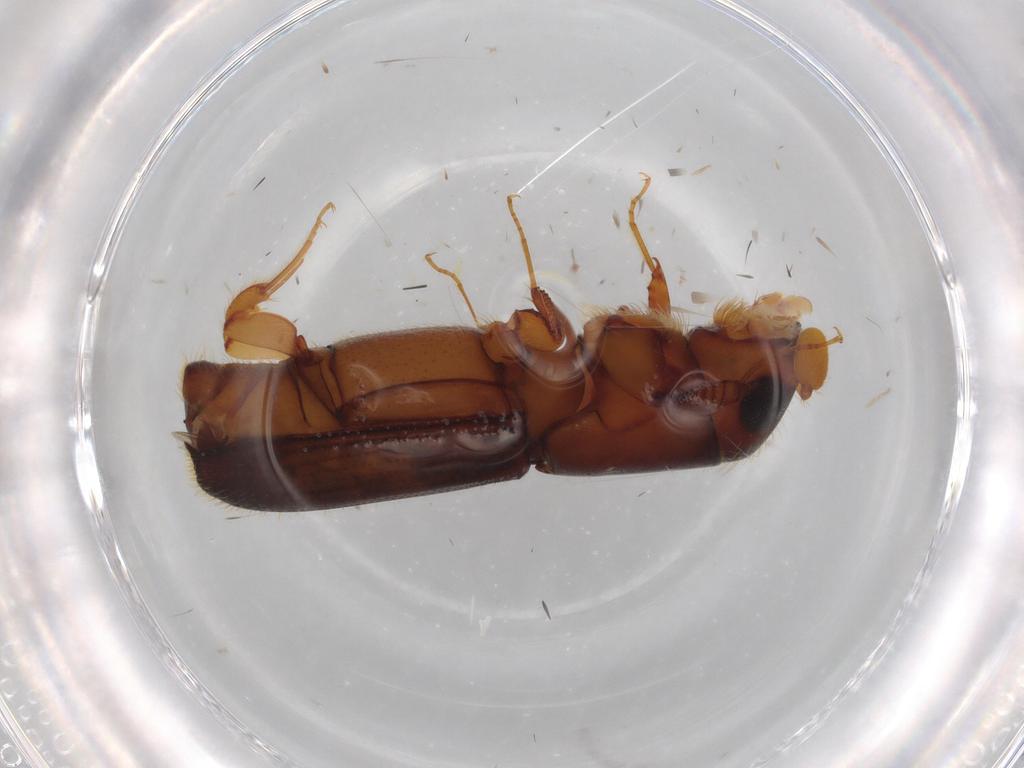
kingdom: Animalia
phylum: Arthropoda
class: Insecta
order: Coleoptera
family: Curculionidae
